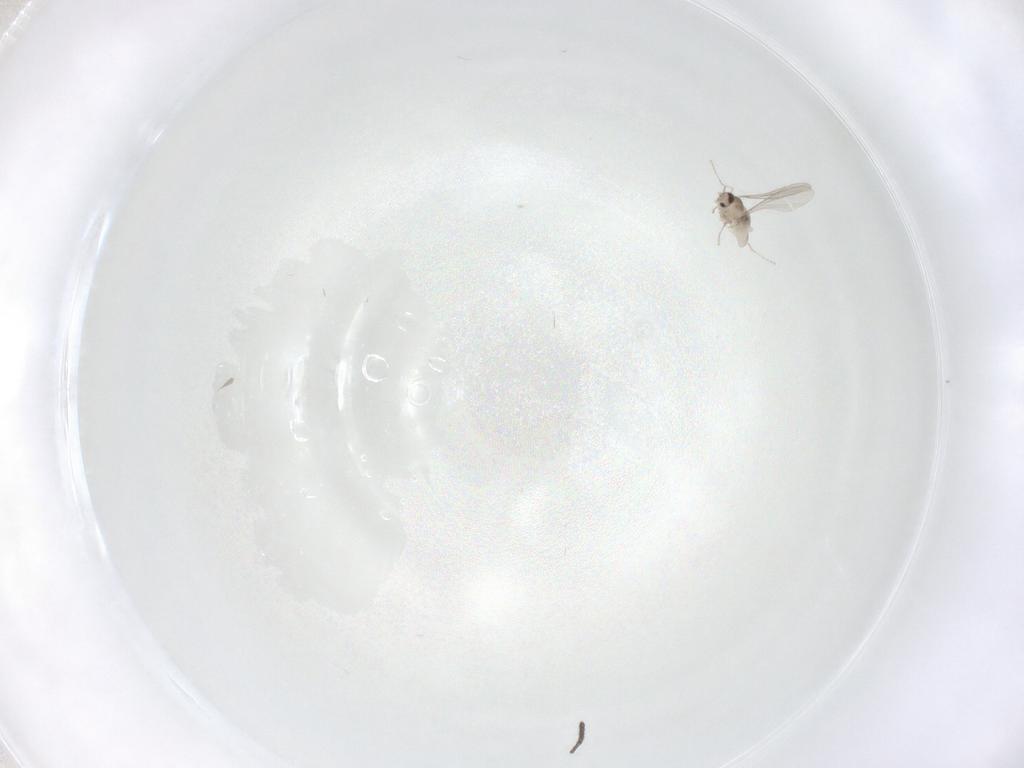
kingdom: Animalia
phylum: Arthropoda
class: Insecta
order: Diptera
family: Cecidomyiidae
